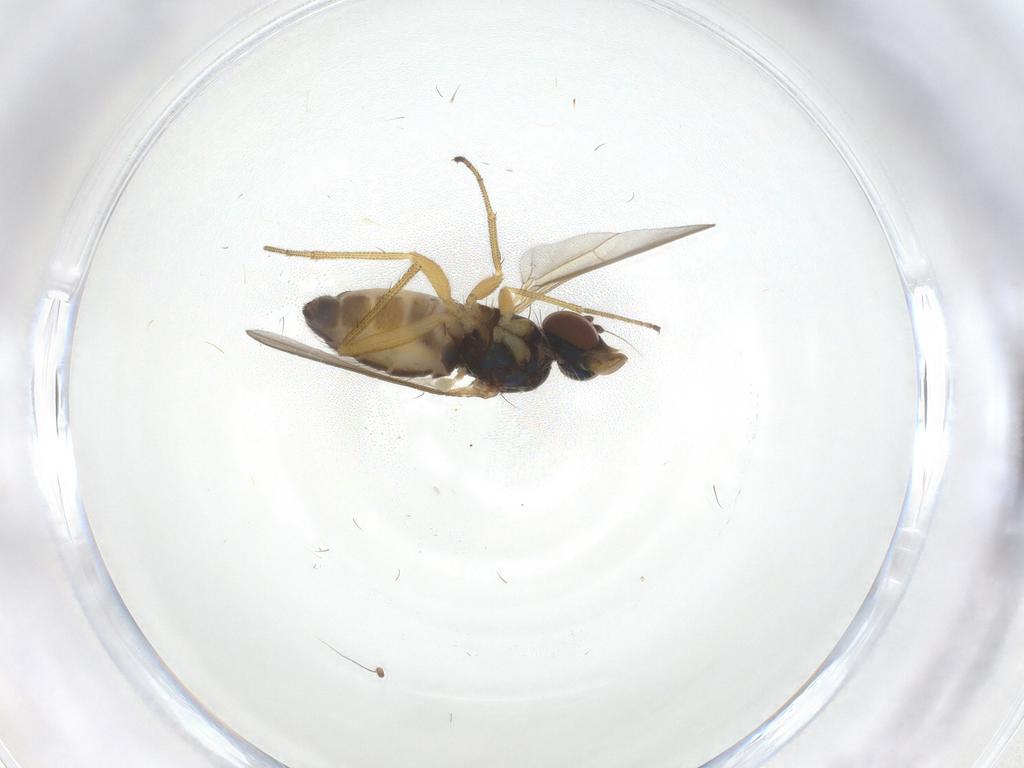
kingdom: Animalia
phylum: Arthropoda
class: Insecta
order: Diptera
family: Dolichopodidae
